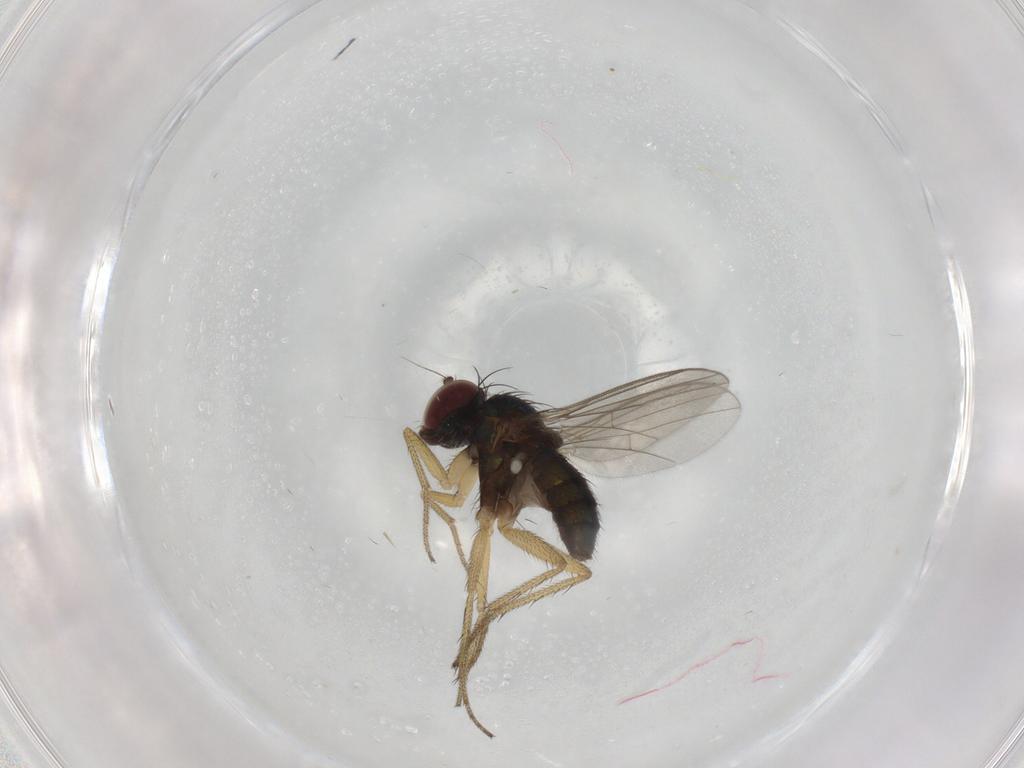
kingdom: Animalia
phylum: Arthropoda
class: Insecta
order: Diptera
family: Dolichopodidae
